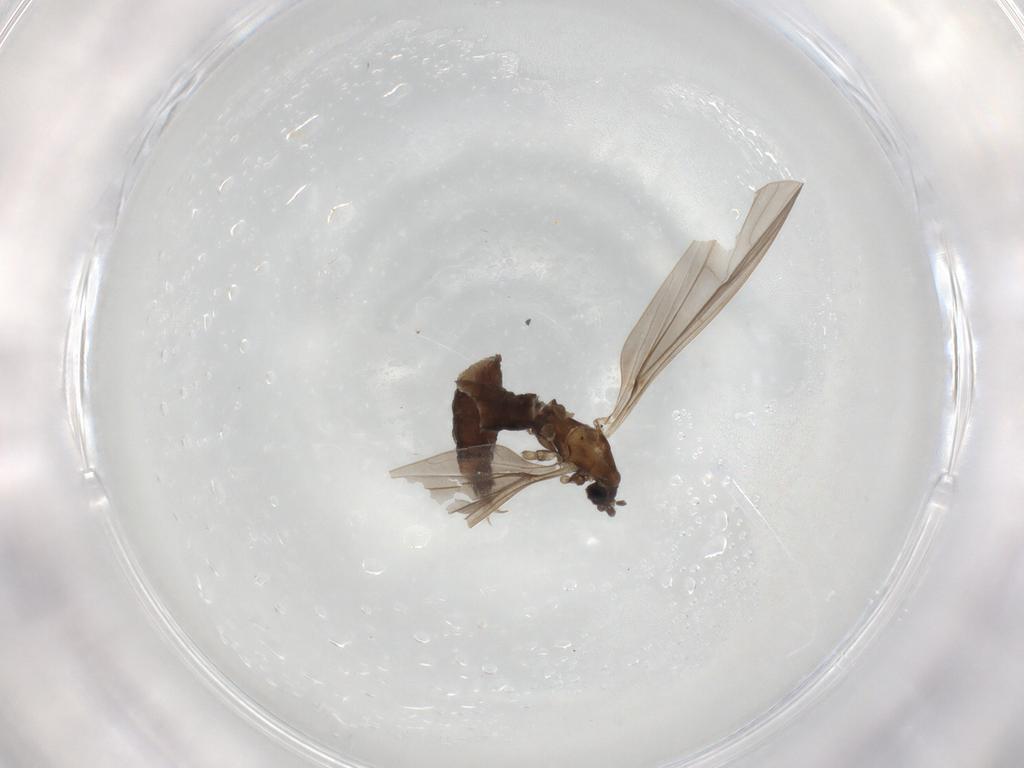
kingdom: Animalia
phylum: Arthropoda
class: Insecta
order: Diptera
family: Limoniidae
